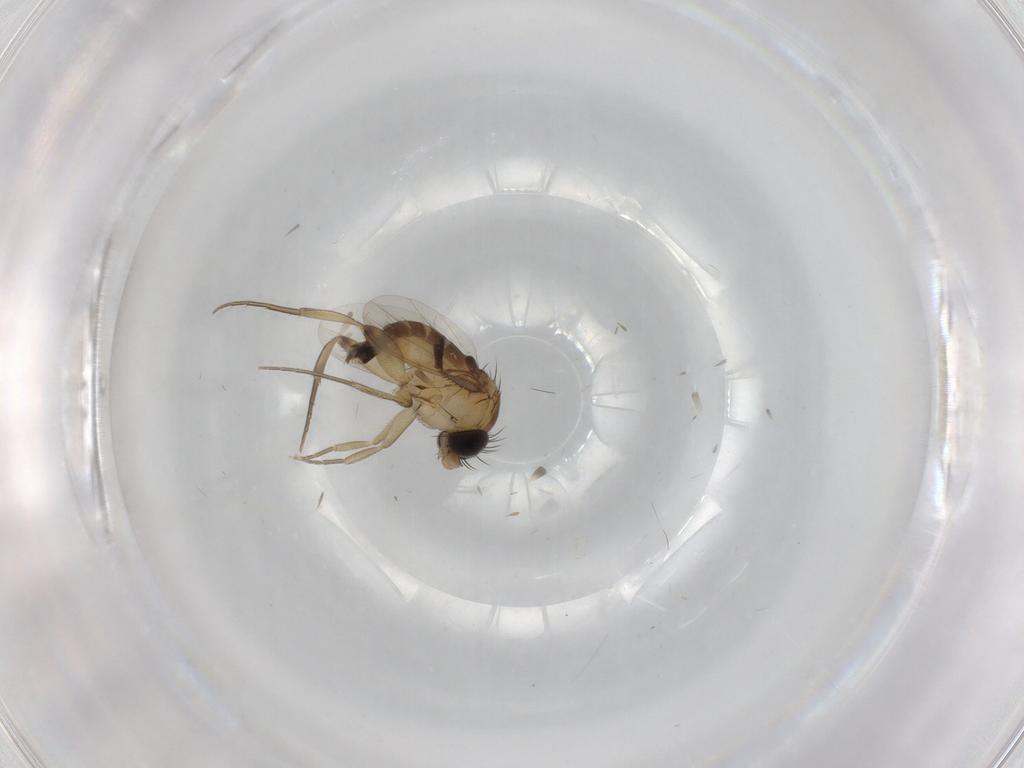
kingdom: Animalia
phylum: Arthropoda
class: Insecta
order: Diptera
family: Phoridae
